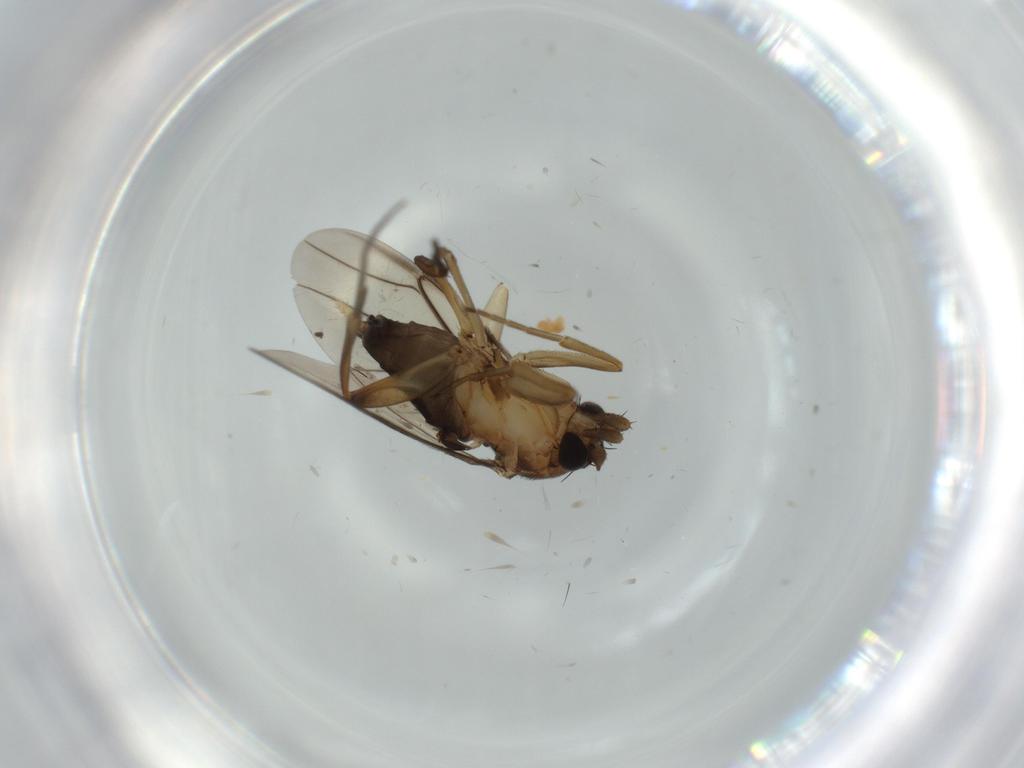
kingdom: Animalia
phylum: Arthropoda
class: Insecta
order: Diptera
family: Phoridae
